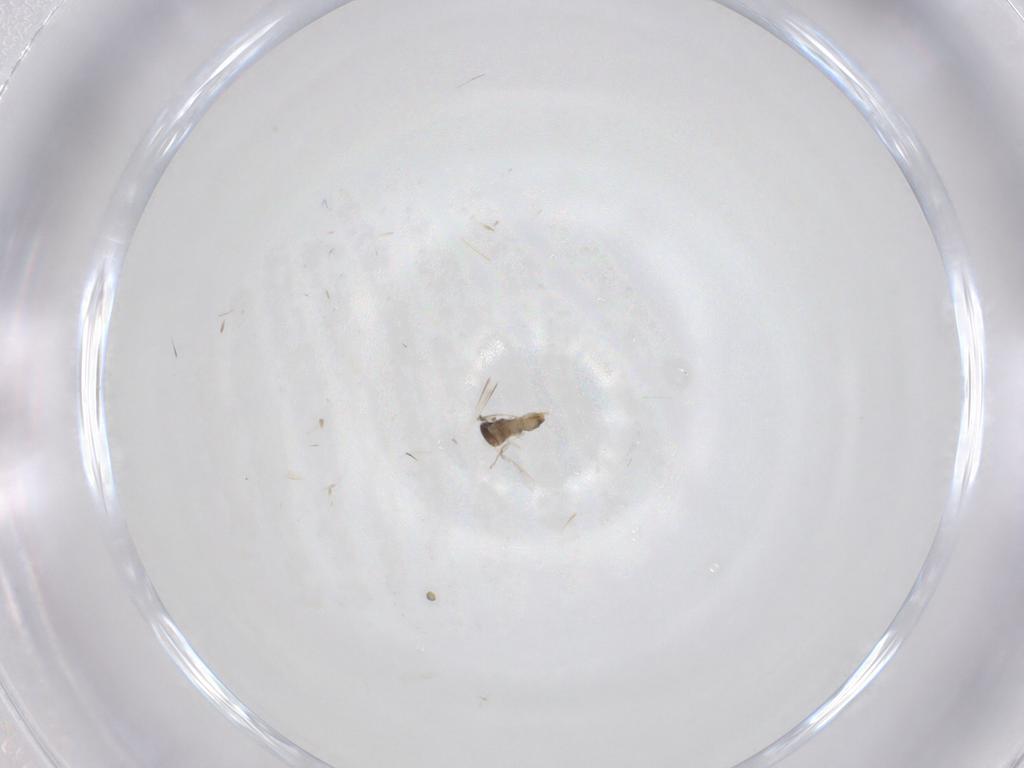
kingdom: Animalia
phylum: Arthropoda
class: Insecta
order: Diptera
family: Cecidomyiidae
